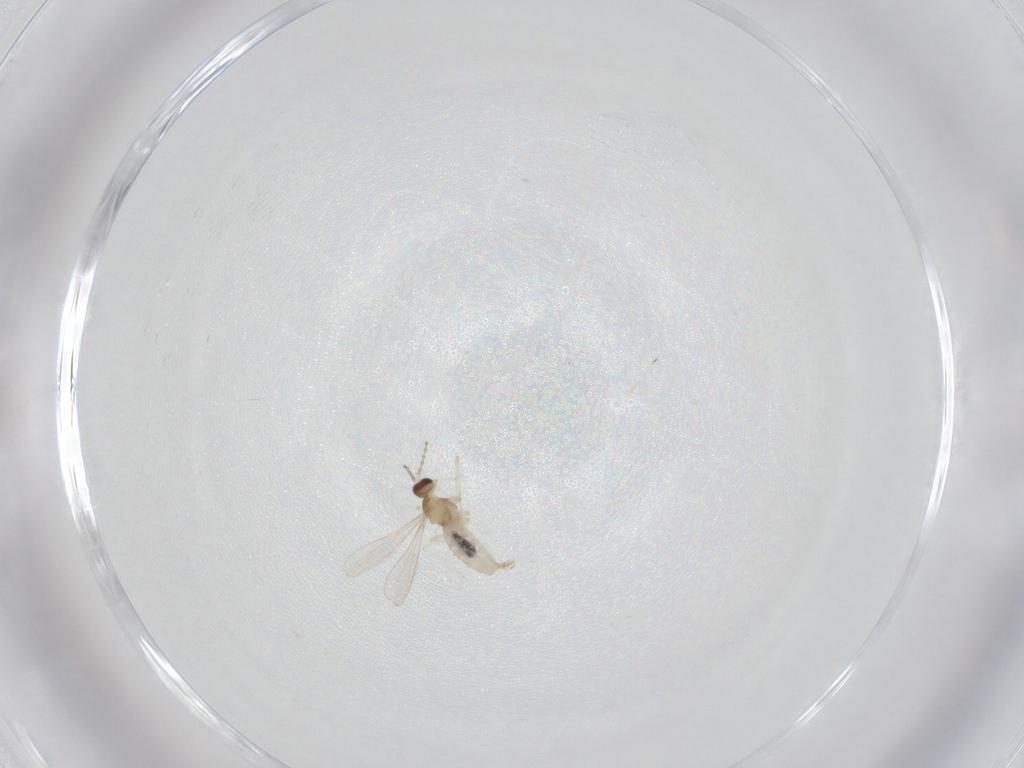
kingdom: Animalia
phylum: Arthropoda
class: Insecta
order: Diptera
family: Cecidomyiidae
